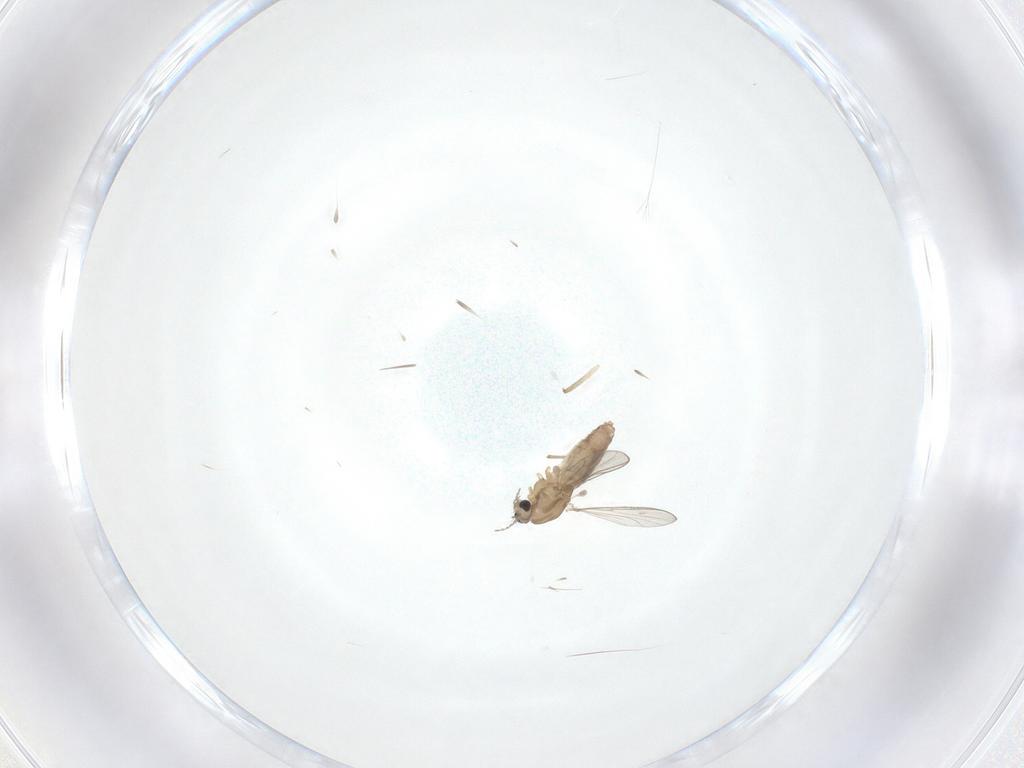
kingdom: Animalia
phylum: Arthropoda
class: Insecta
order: Diptera
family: Chironomidae
